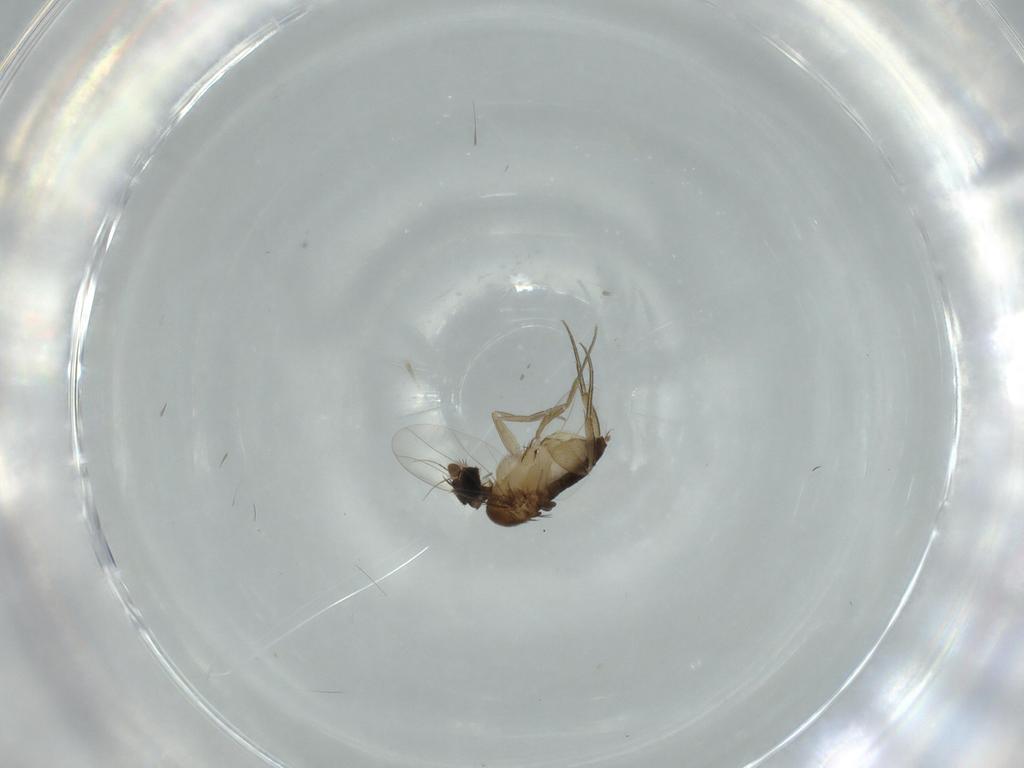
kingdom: Animalia
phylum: Arthropoda
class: Insecta
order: Diptera
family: Phoridae
